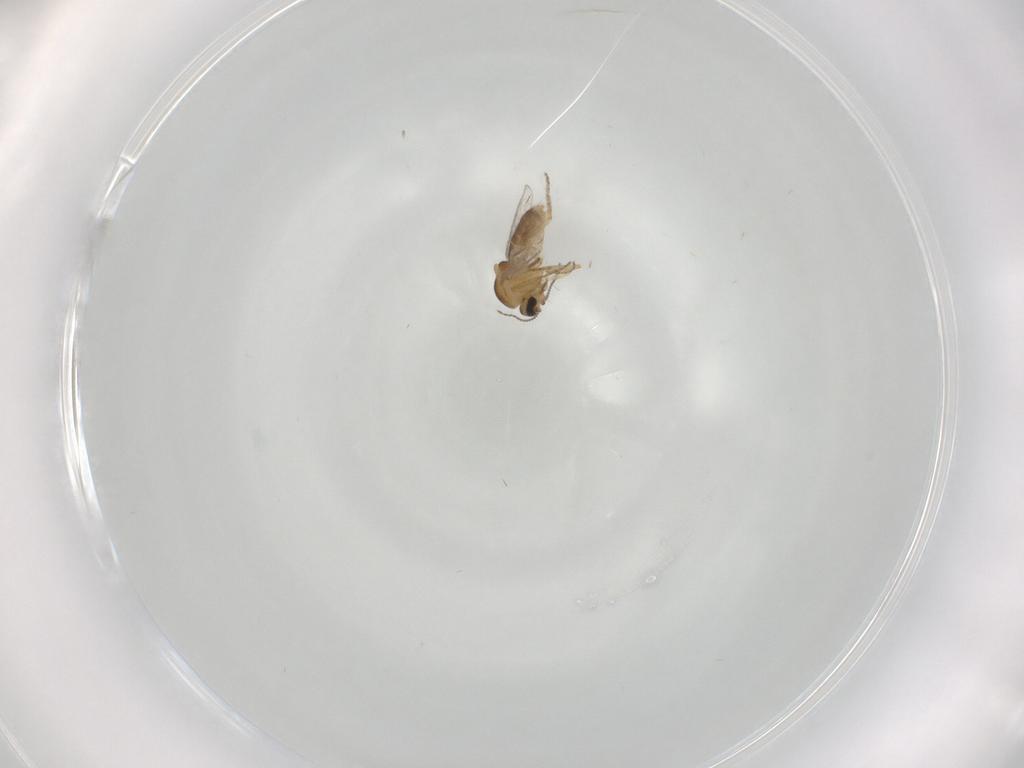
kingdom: Animalia
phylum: Arthropoda
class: Insecta
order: Diptera
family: Ceratopogonidae
